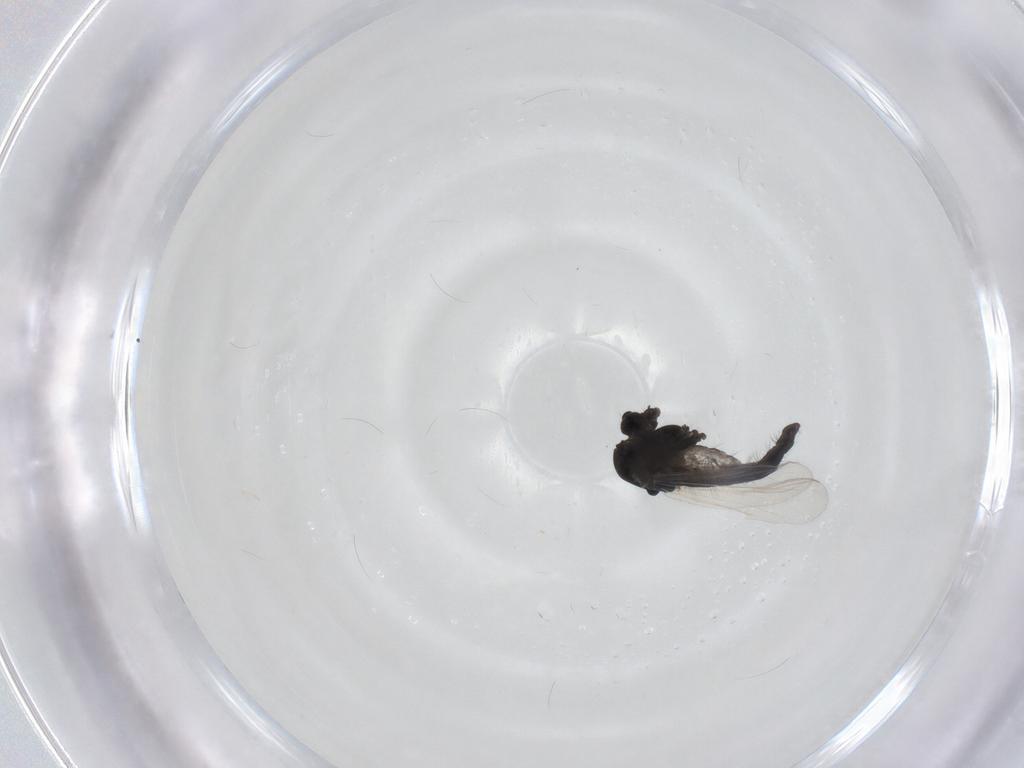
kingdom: Animalia
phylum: Arthropoda
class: Insecta
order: Diptera
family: Chironomidae
